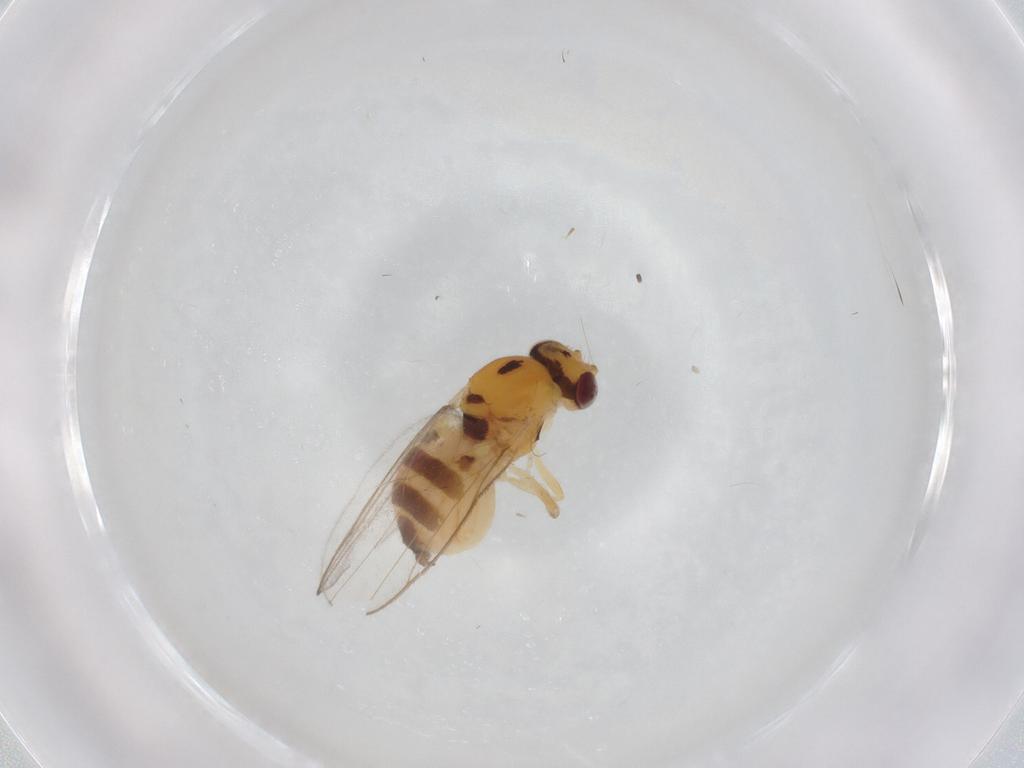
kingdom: Animalia
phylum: Arthropoda
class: Insecta
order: Diptera
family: Chloropidae
